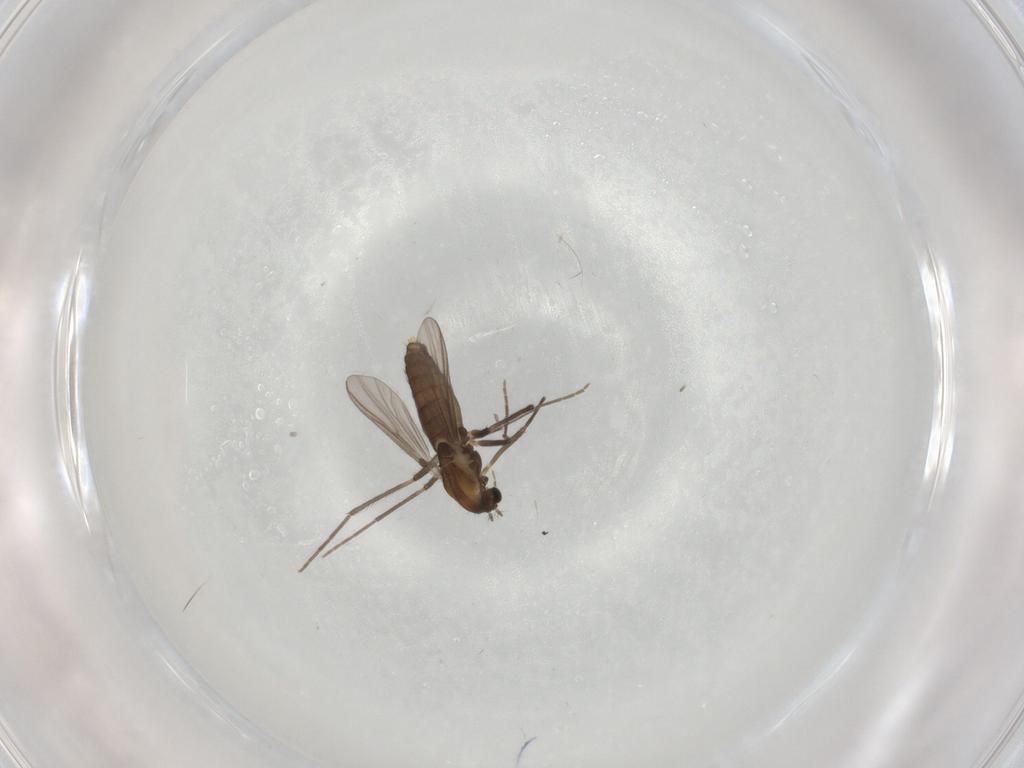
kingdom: Animalia
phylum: Arthropoda
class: Insecta
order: Diptera
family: Chironomidae
